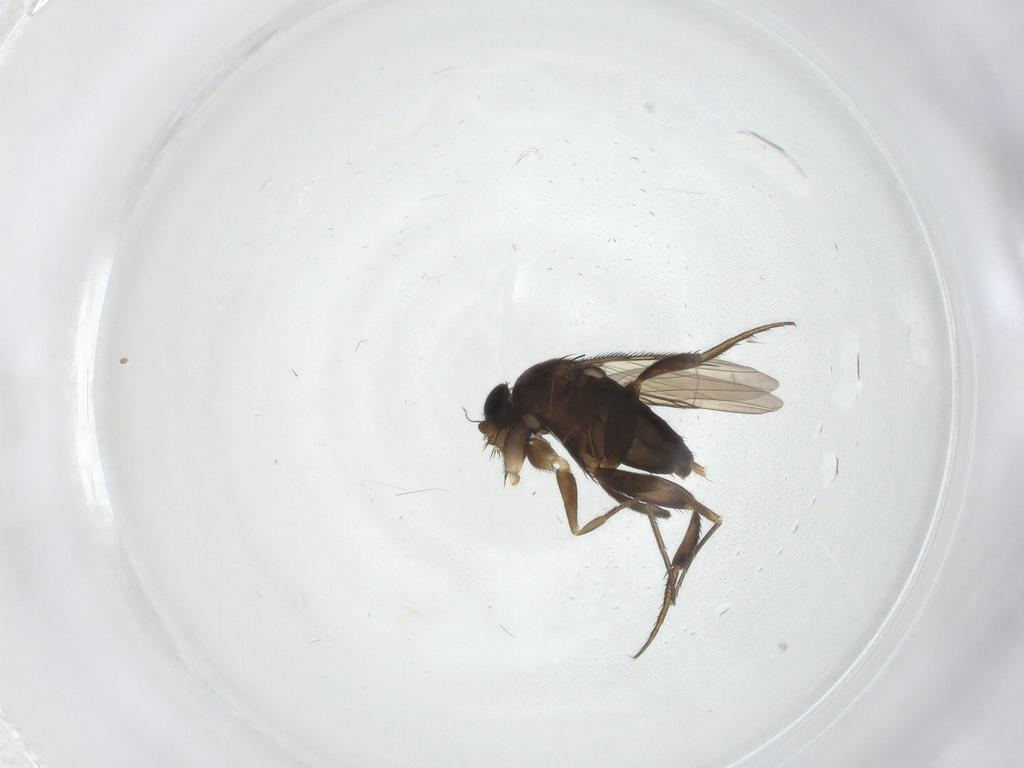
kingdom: Animalia
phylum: Arthropoda
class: Insecta
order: Diptera
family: Phoridae
